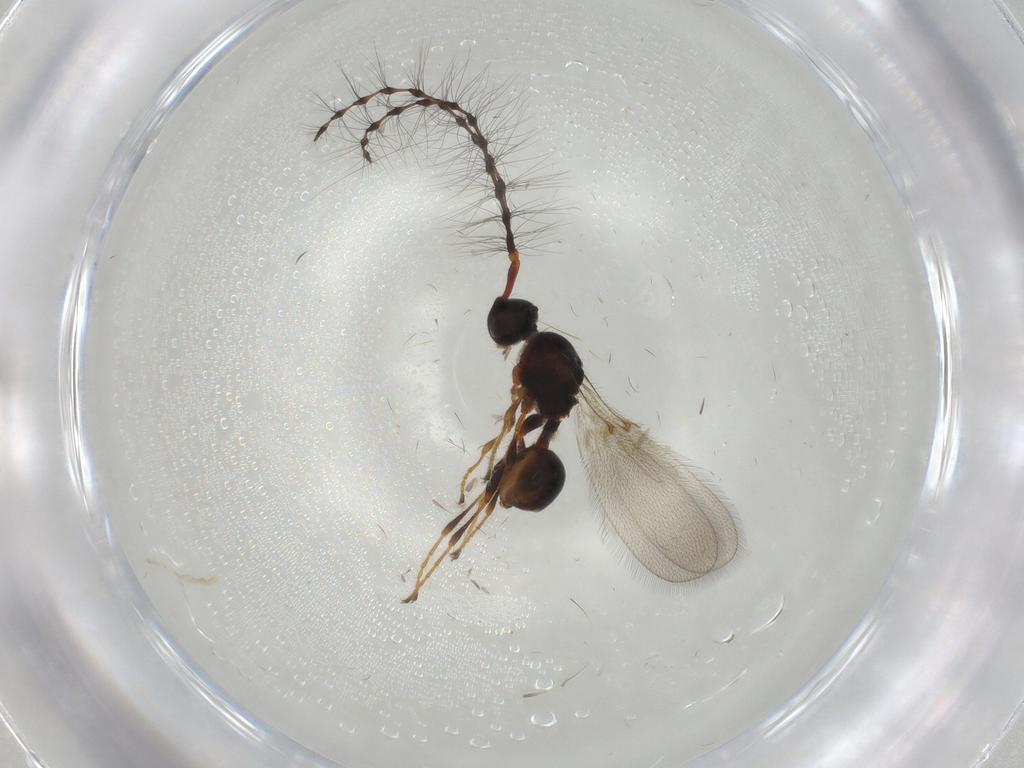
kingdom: Animalia
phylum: Arthropoda
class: Insecta
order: Hymenoptera
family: Diapriidae
